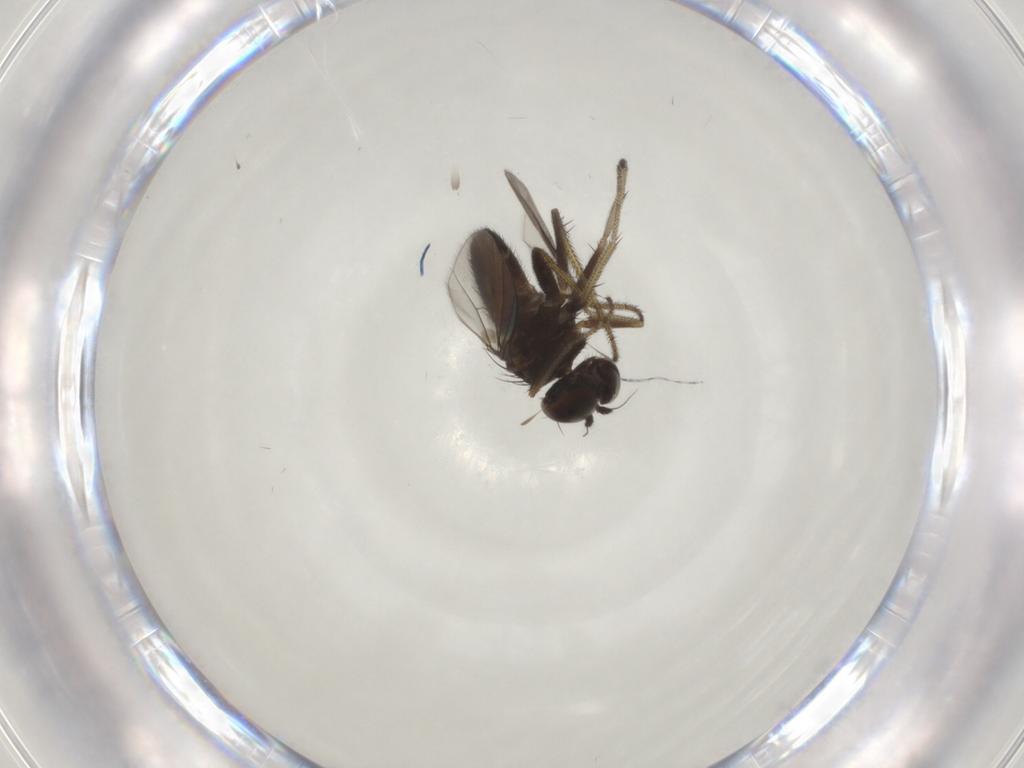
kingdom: Animalia
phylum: Arthropoda
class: Insecta
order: Diptera
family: Dolichopodidae
